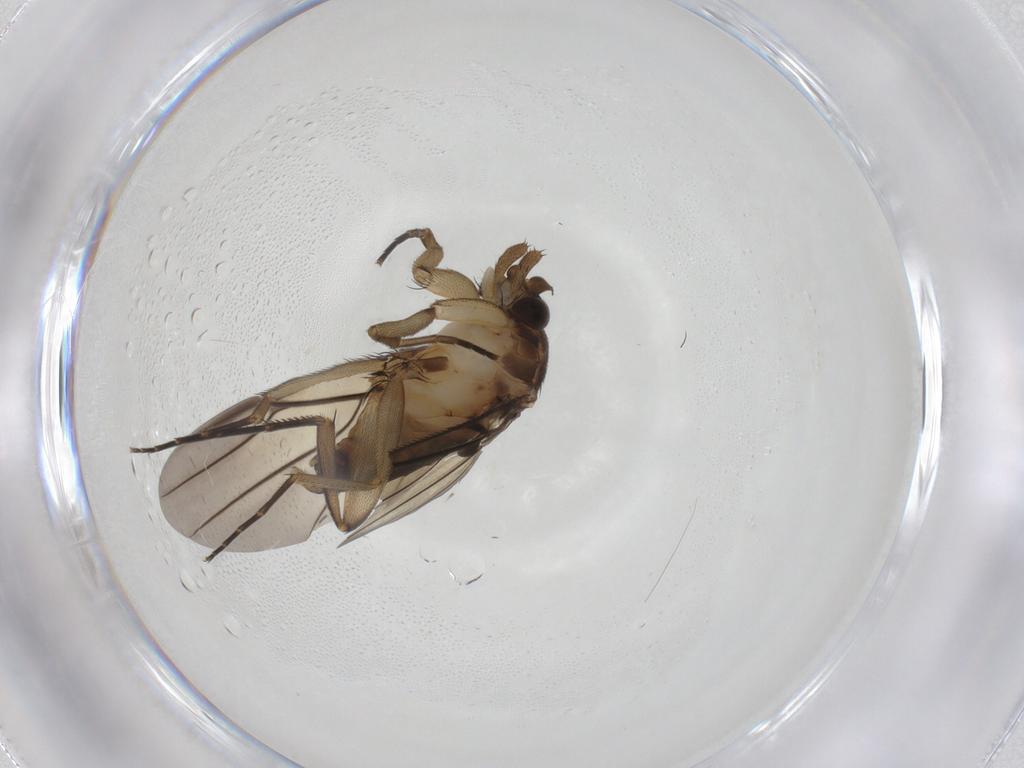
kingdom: Animalia
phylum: Arthropoda
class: Insecta
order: Diptera
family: Phoridae
